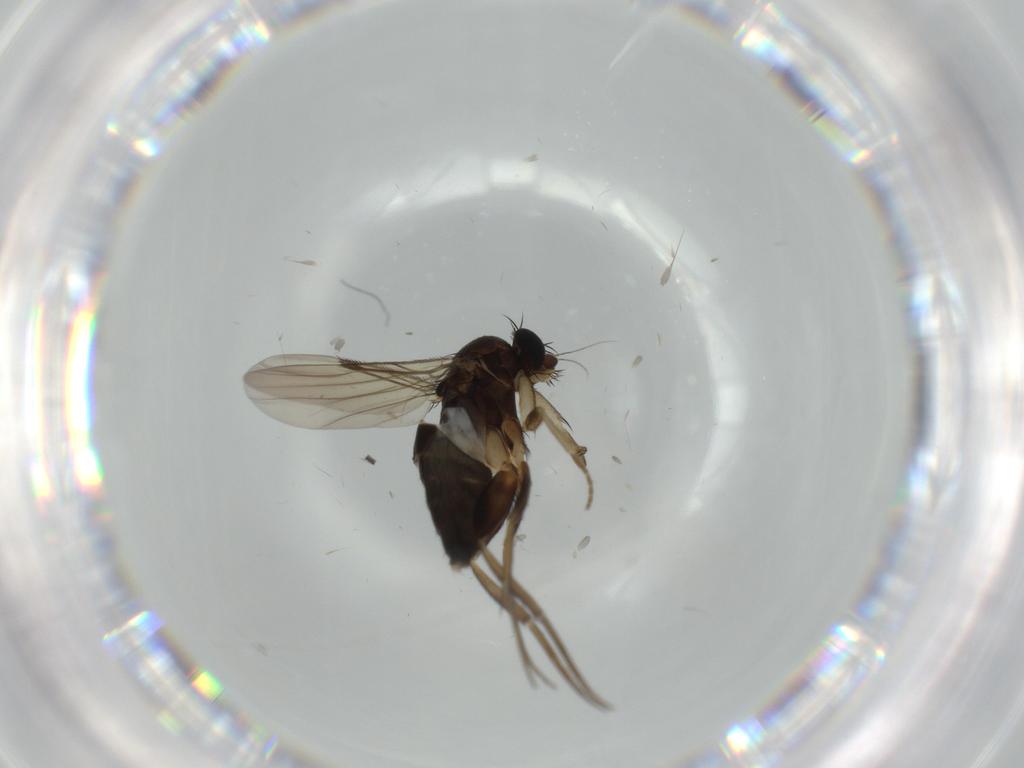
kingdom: Animalia
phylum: Arthropoda
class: Insecta
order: Diptera
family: Phoridae
